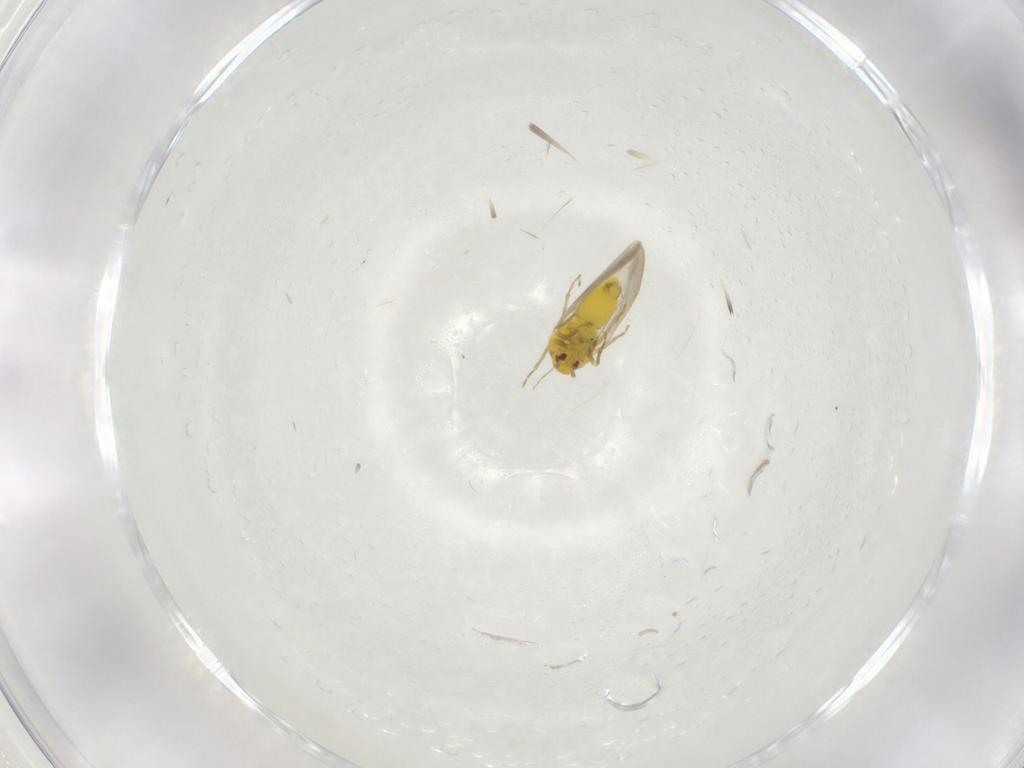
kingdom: Animalia
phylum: Arthropoda
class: Insecta
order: Hemiptera
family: Aleyrodidae
